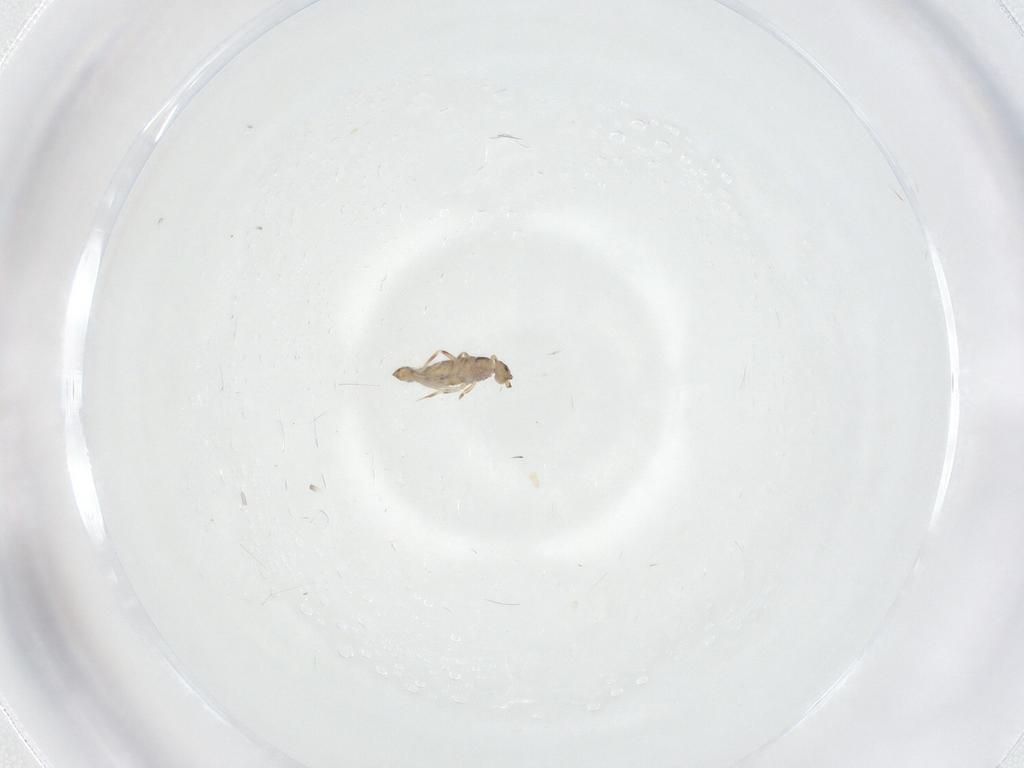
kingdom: Animalia
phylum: Arthropoda
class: Collembola
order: Entomobryomorpha
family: Entomobryidae
